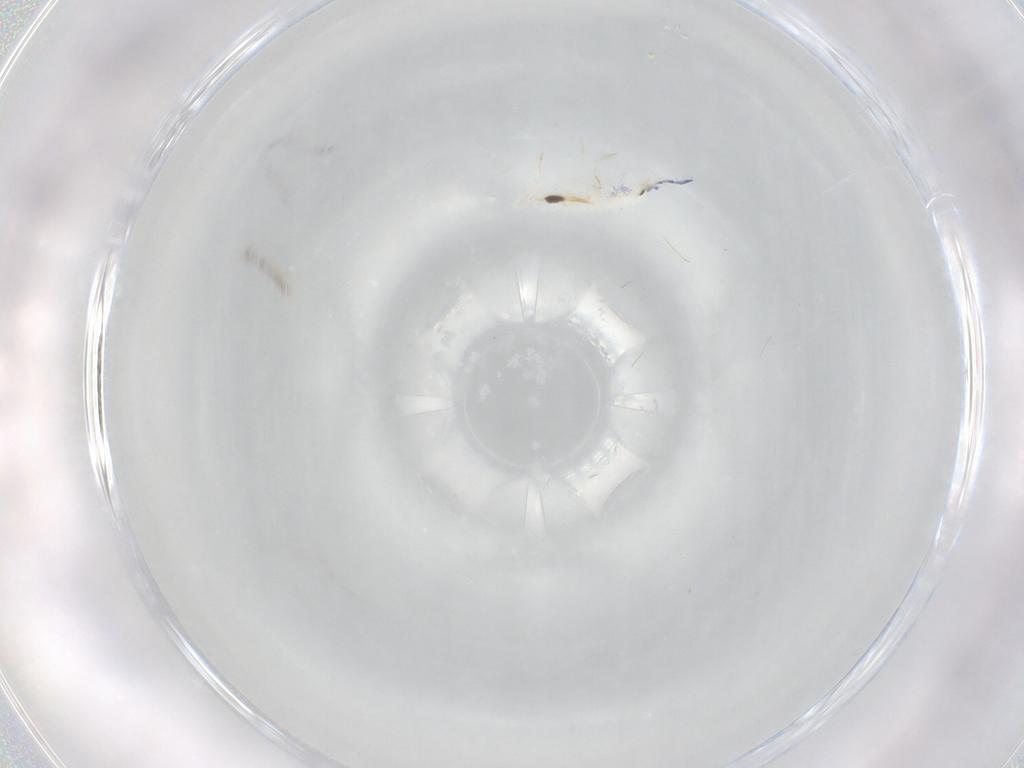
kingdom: Animalia
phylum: Arthropoda
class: Collembola
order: Entomobryomorpha
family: Entomobryidae
